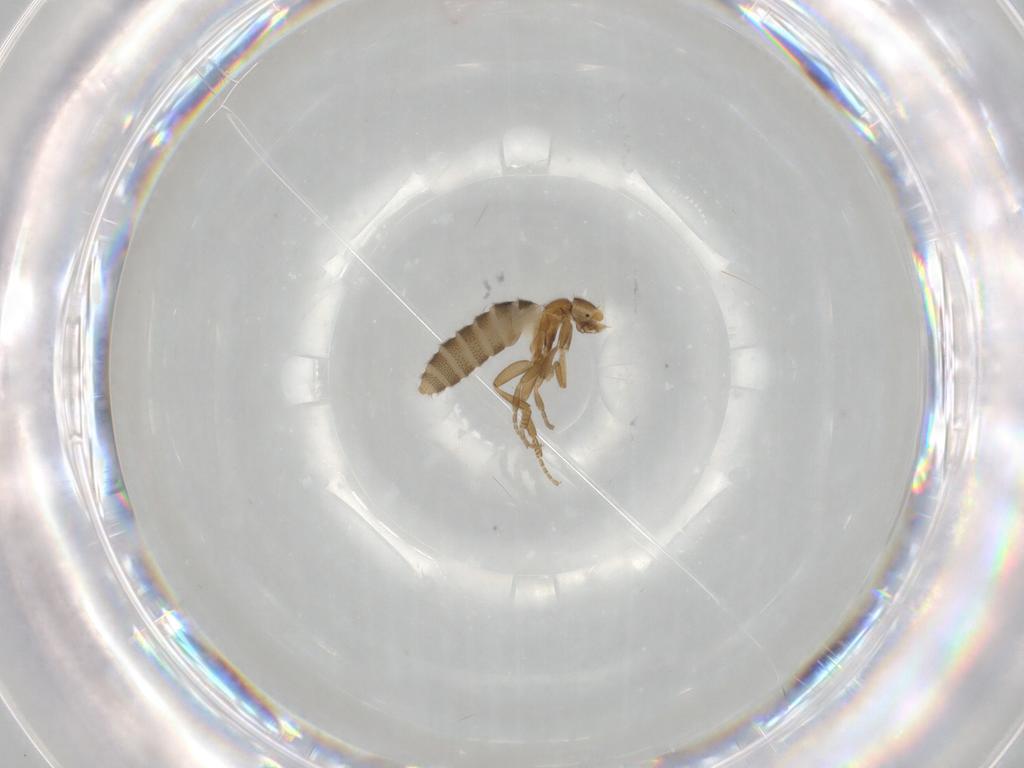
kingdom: Animalia
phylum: Arthropoda
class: Insecta
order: Diptera
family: Phoridae
